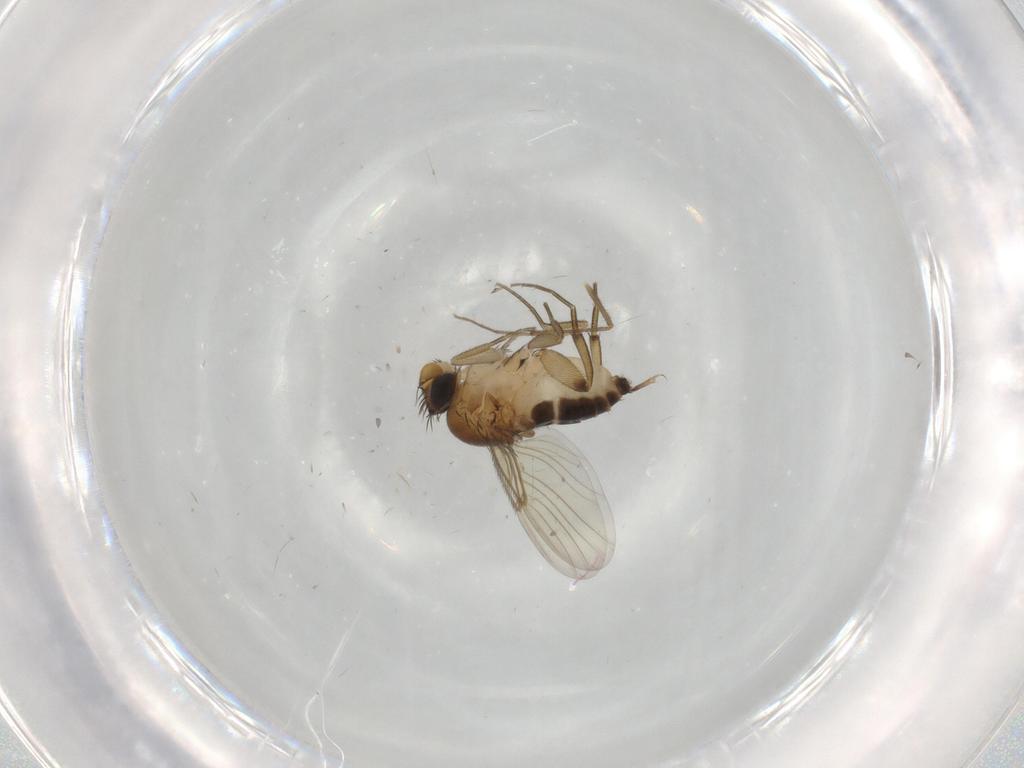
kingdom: Animalia
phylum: Arthropoda
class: Insecta
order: Diptera
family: Chironomidae
